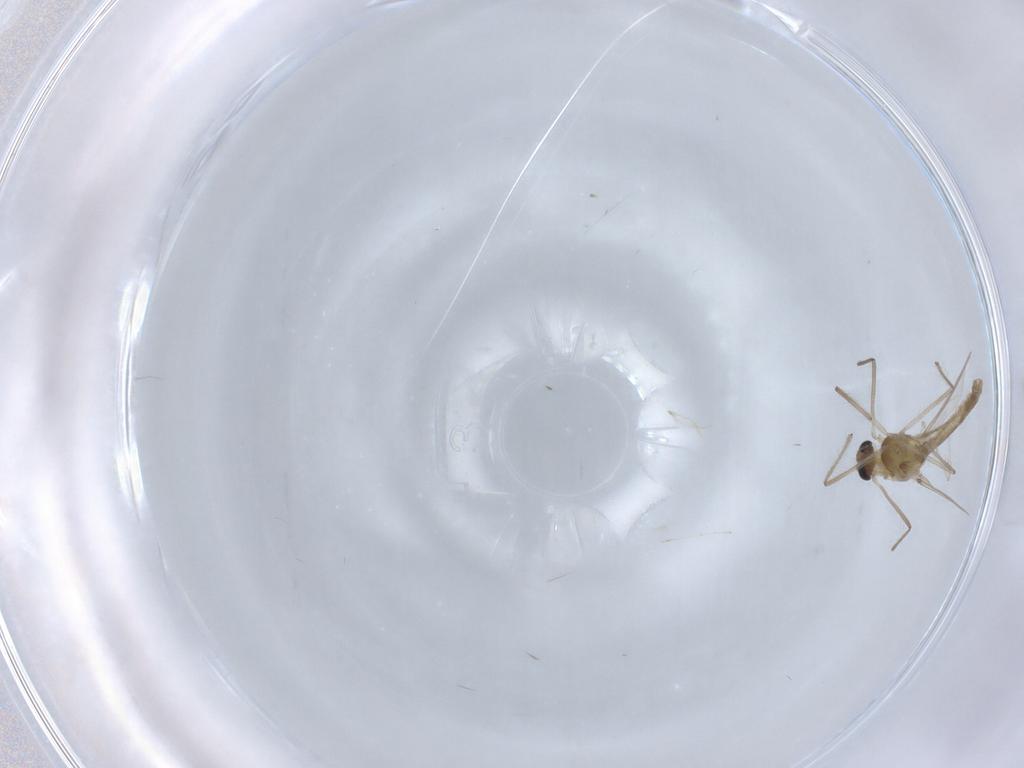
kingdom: Animalia
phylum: Arthropoda
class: Insecta
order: Diptera
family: Chironomidae
